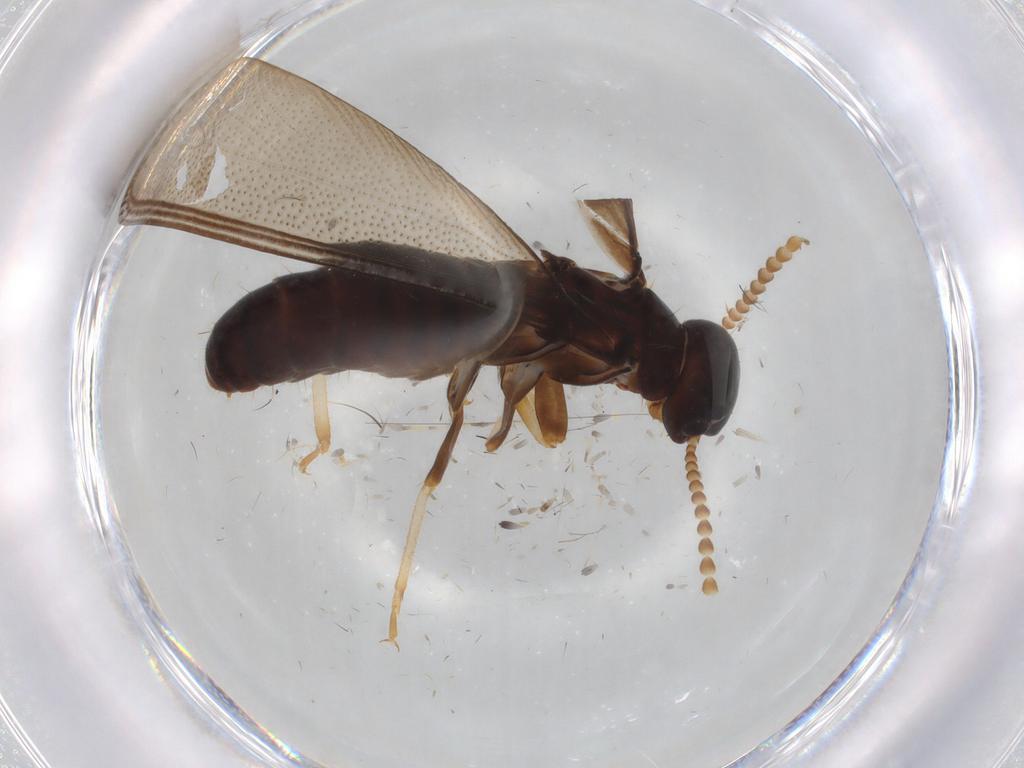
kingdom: Animalia
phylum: Arthropoda
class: Insecta
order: Blattodea
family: Ectobiidae
